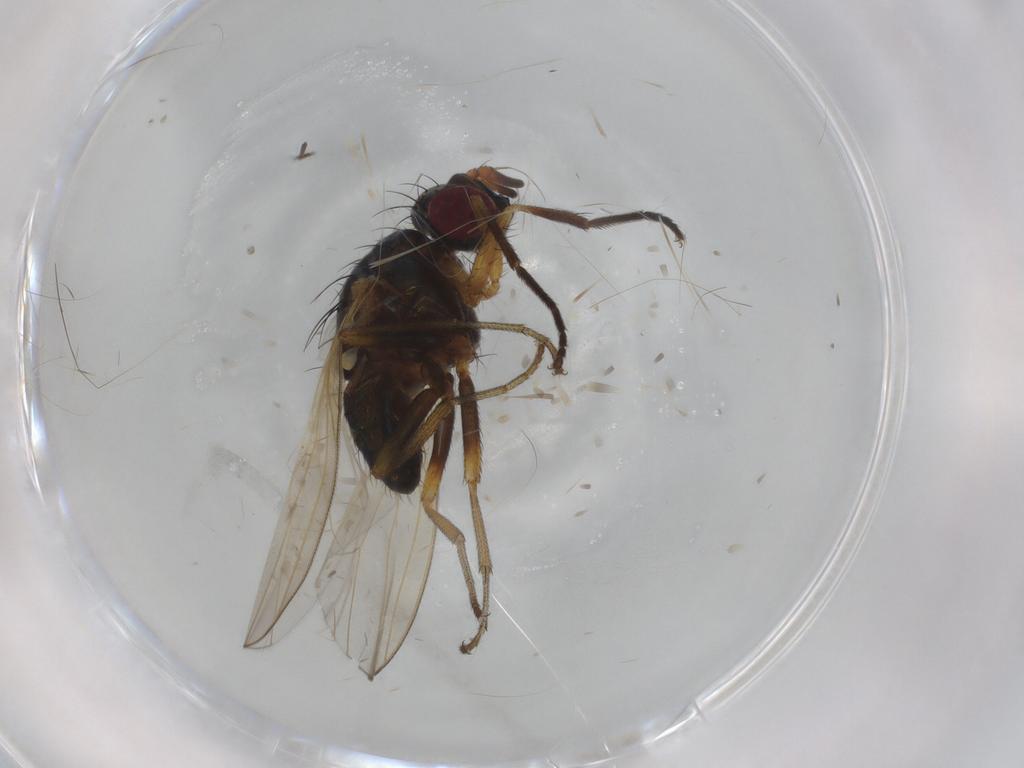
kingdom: Animalia
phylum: Arthropoda
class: Insecta
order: Diptera
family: Lauxaniidae
